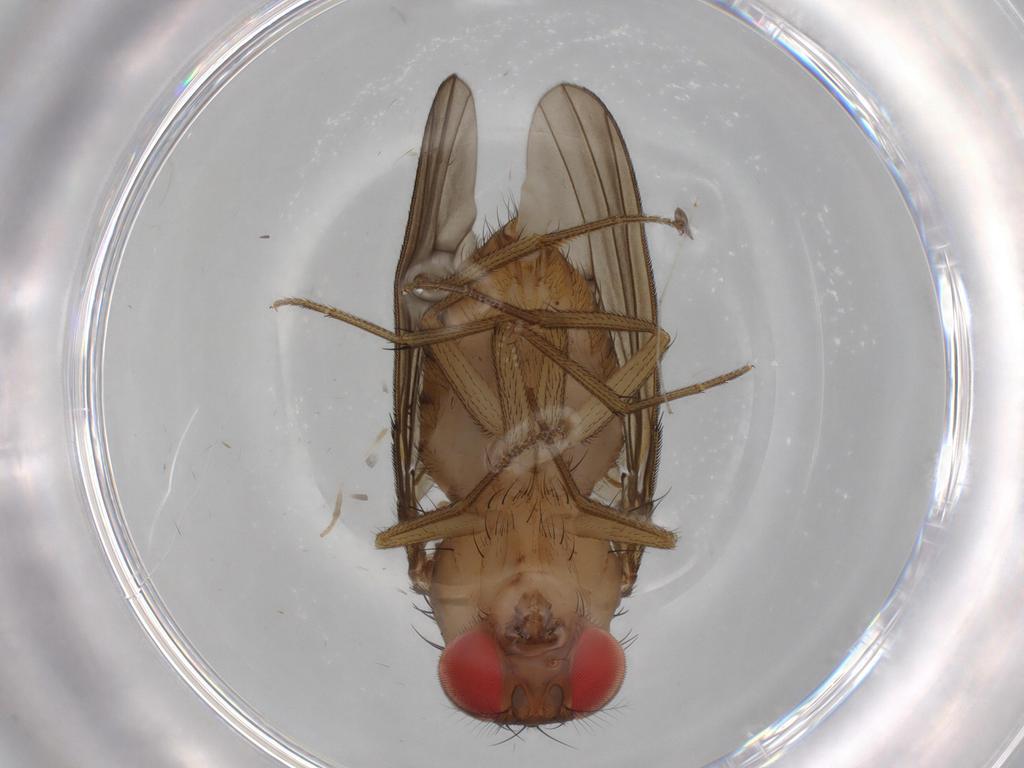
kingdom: Animalia
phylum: Arthropoda
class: Insecta
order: Diptera
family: Drosophilidae
